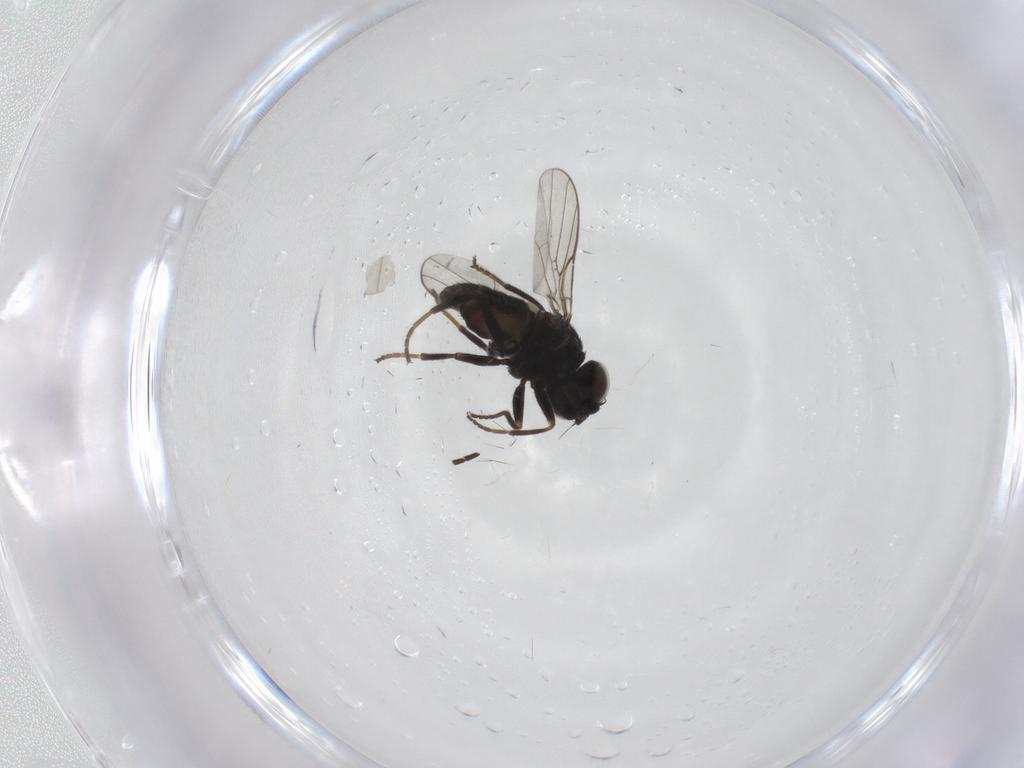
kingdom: Animalia
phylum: Arthropoda
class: Insecta
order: Diptera
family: Chloropidae
